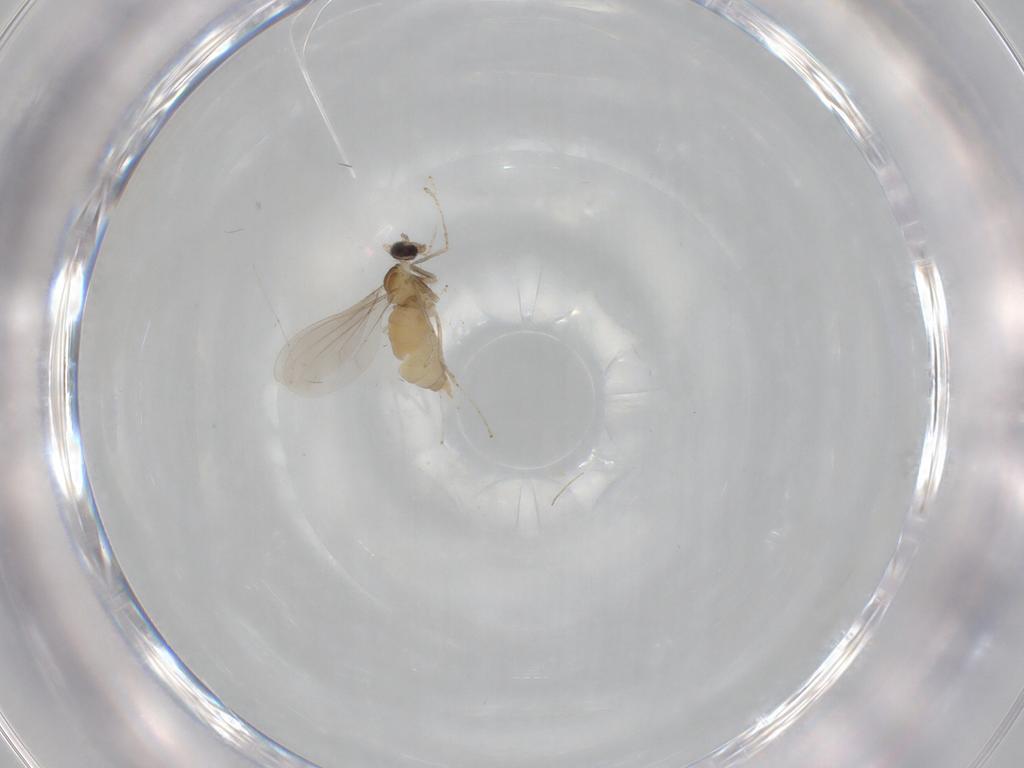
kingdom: Animalia
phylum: Arthropoda
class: Insecta
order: Diptera
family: Cecidomyiidae
